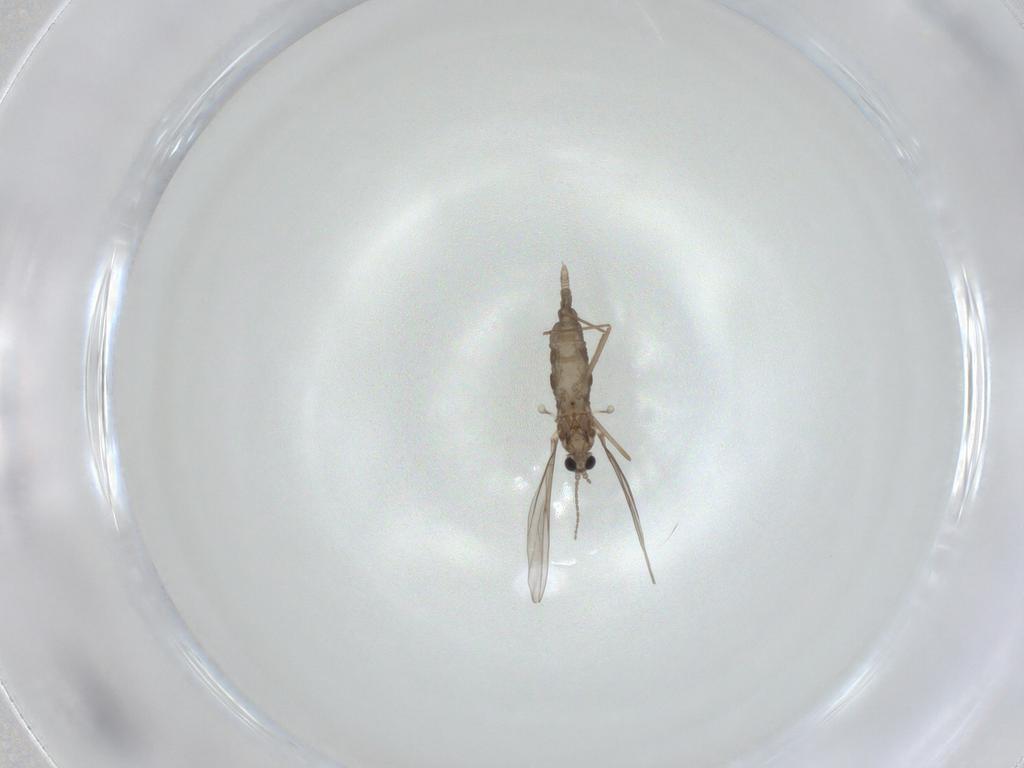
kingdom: Animalia
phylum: Arthropoda
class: Insecta
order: Diptera
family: Cecidomyiidae
